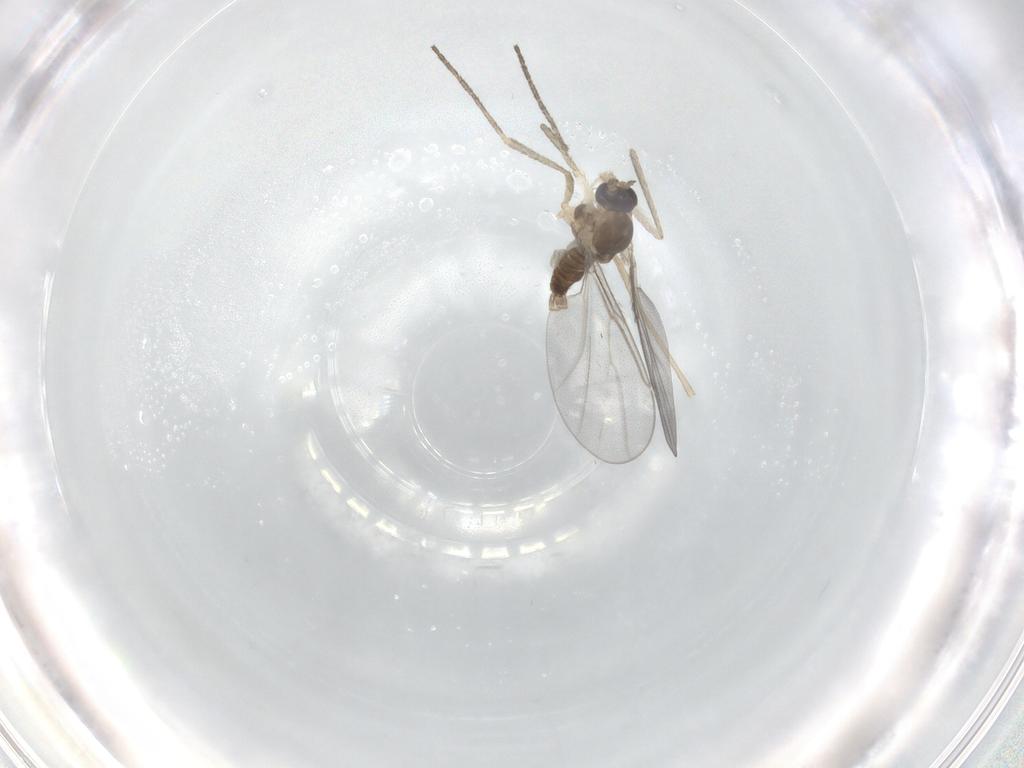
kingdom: Animalia
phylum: Arthropoda
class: Insecta
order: Diptera
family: Cecidomyiidae
